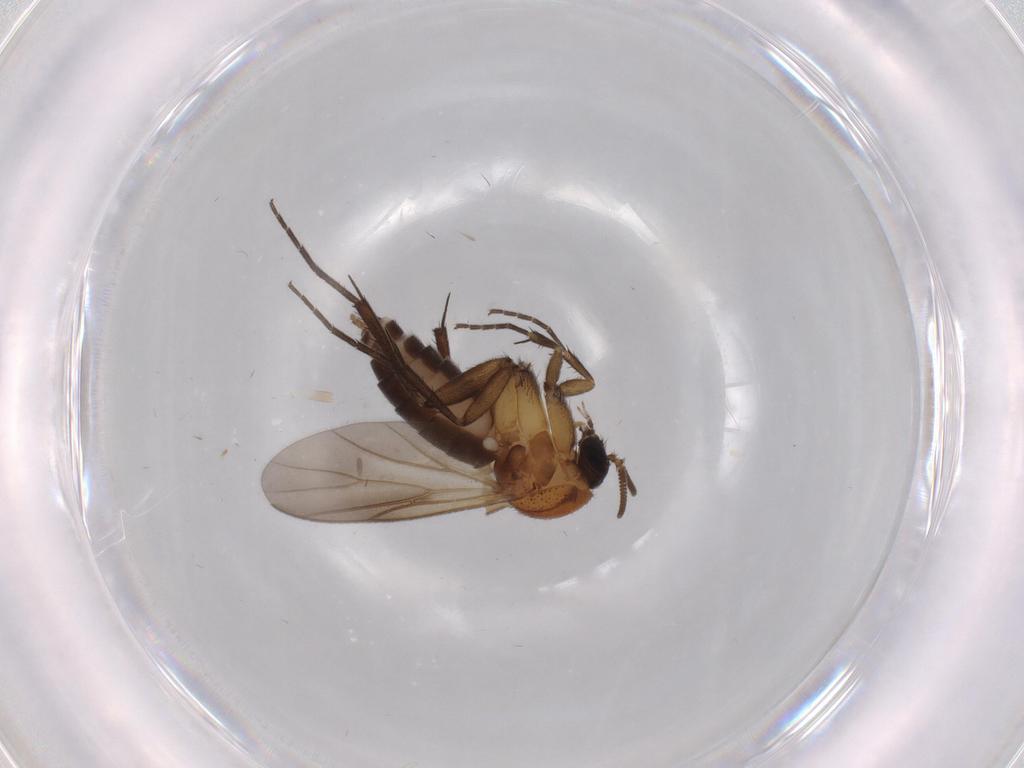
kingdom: Animalia
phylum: Arthropoda
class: Insecta
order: Diptera
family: Mycetophilidae
